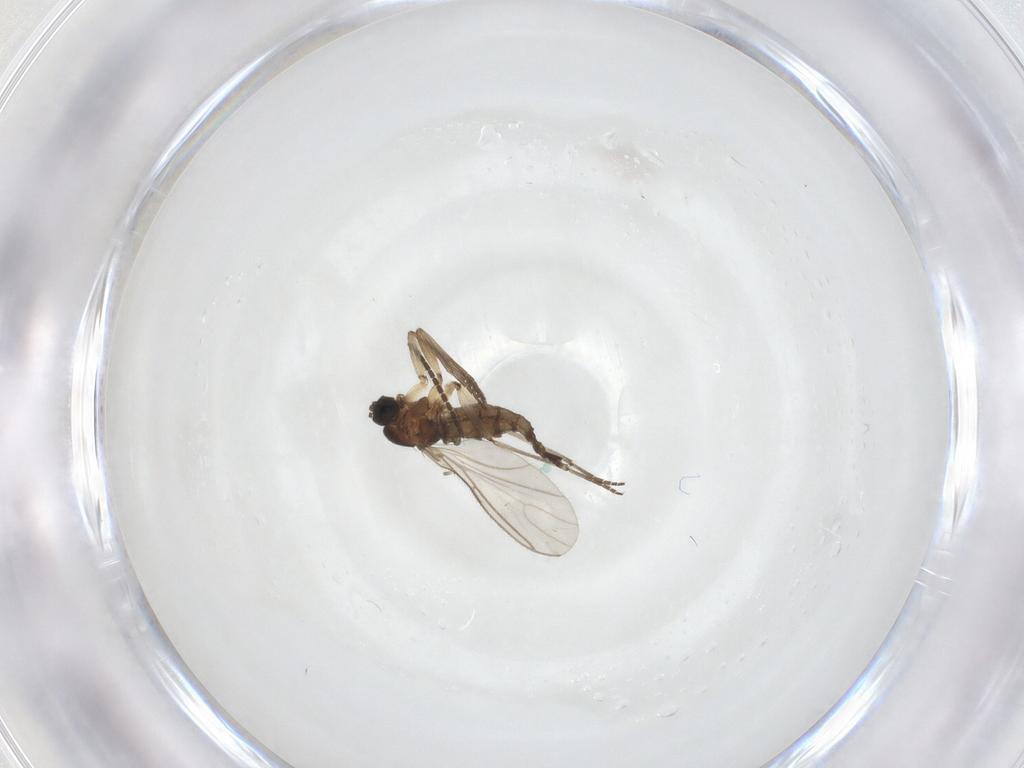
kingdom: Animalia
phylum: Arthropoda
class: Insecta
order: Diptera
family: Sciaridae
